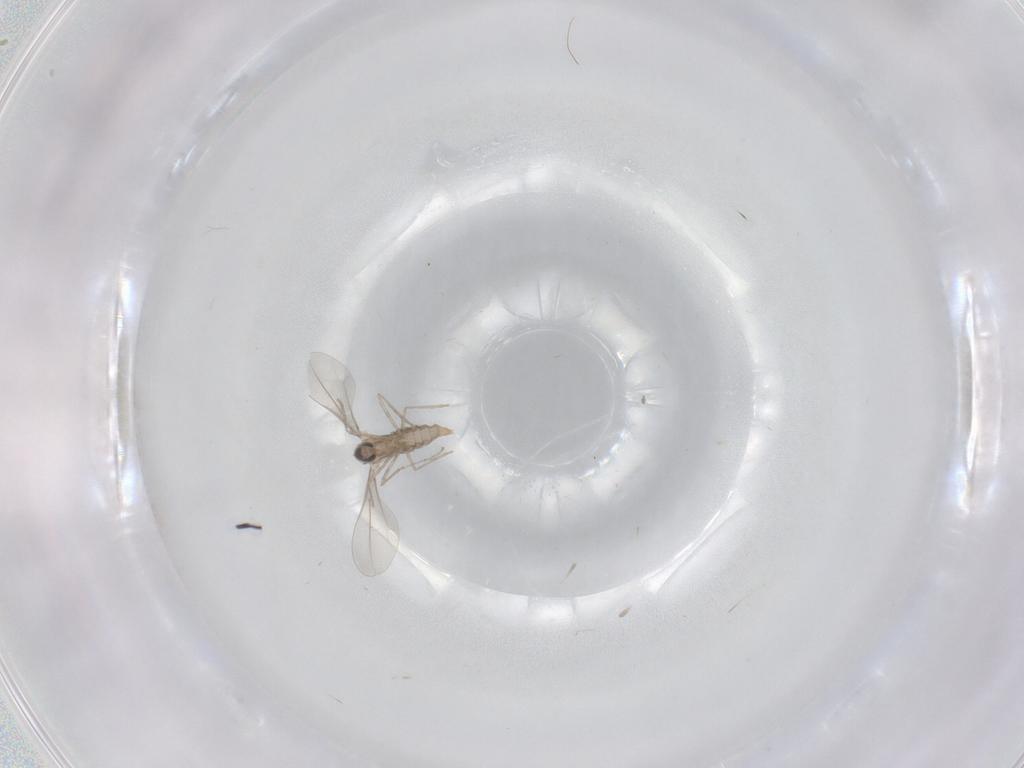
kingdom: Animalia
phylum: Arthropoda
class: Insecta
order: Diptera
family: Cecidomyiidae
